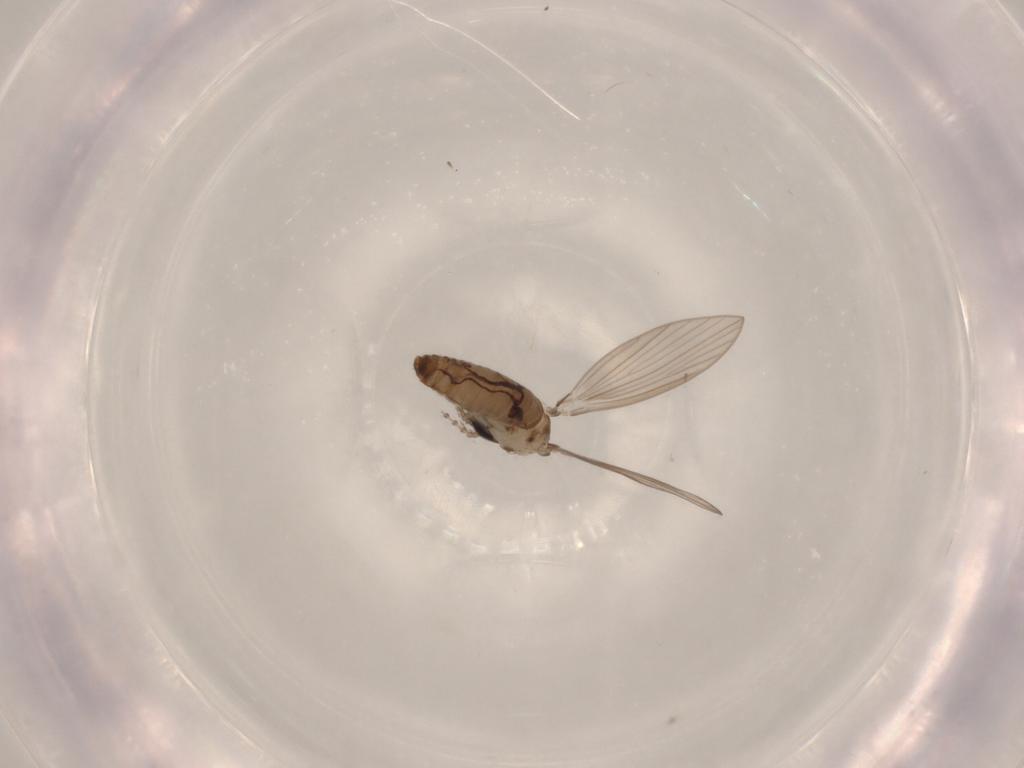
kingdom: Animalia
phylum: Arthropoda
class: Insecta
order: Diptera
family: Psychodidae
